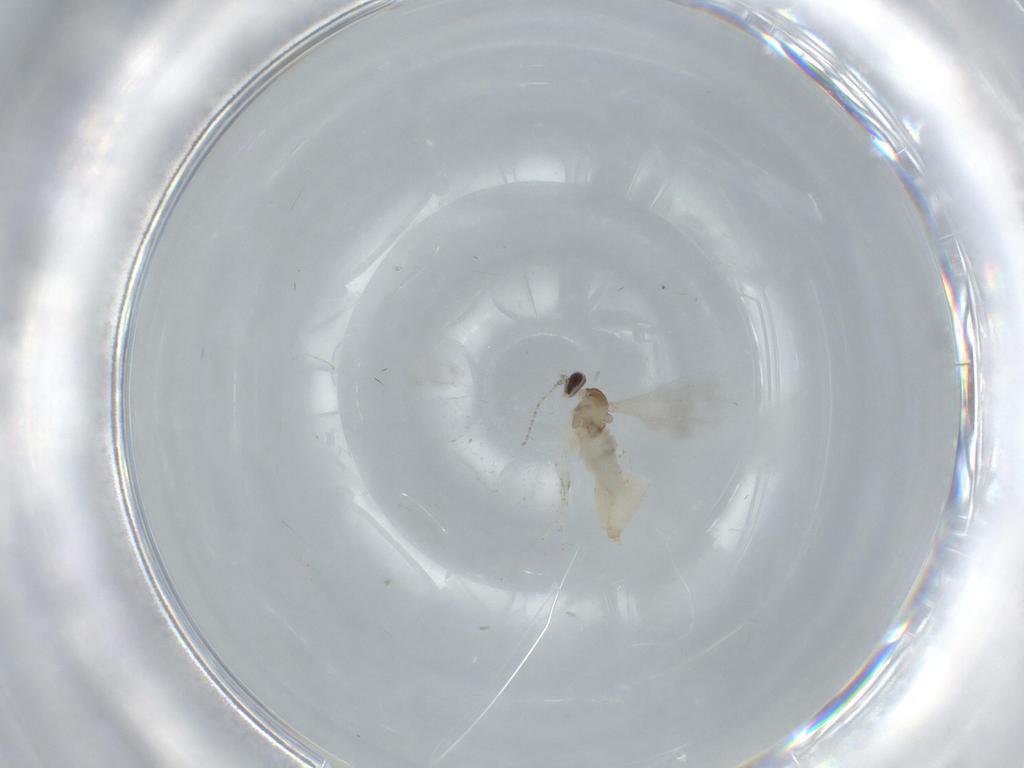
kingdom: Animalia
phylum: Arthropoda
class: Insecta
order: Diptera
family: Cecidomyiidae
